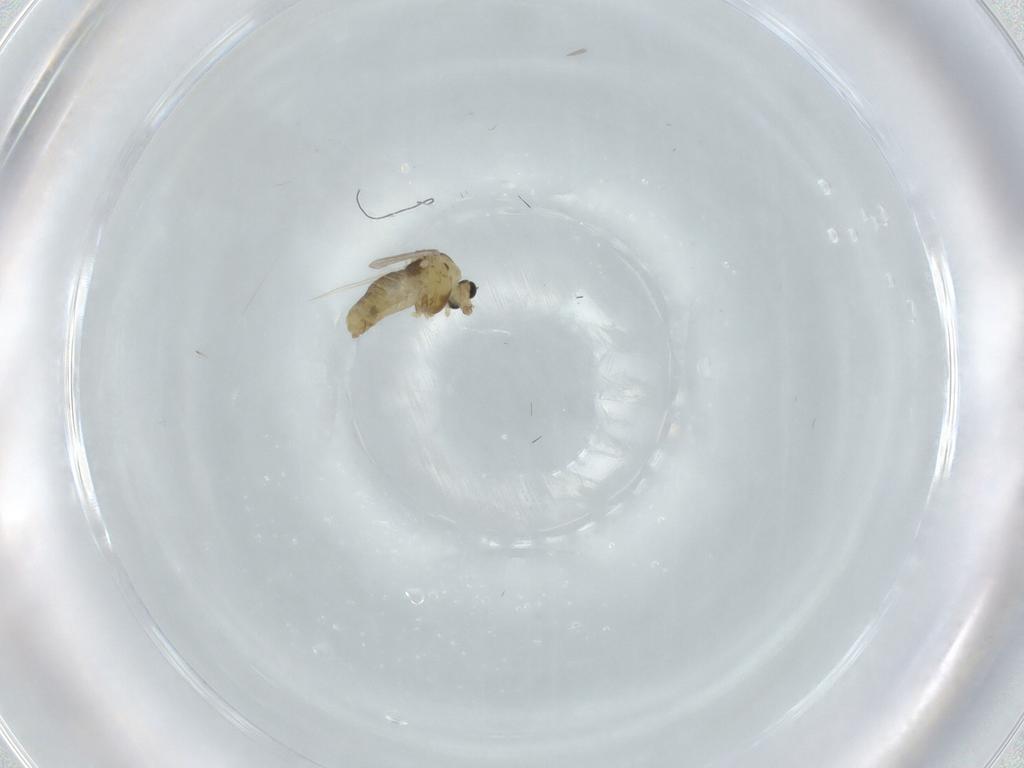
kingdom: Animalia
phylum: Arthropoda
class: Insecta
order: Diptera
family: Chironomidae
